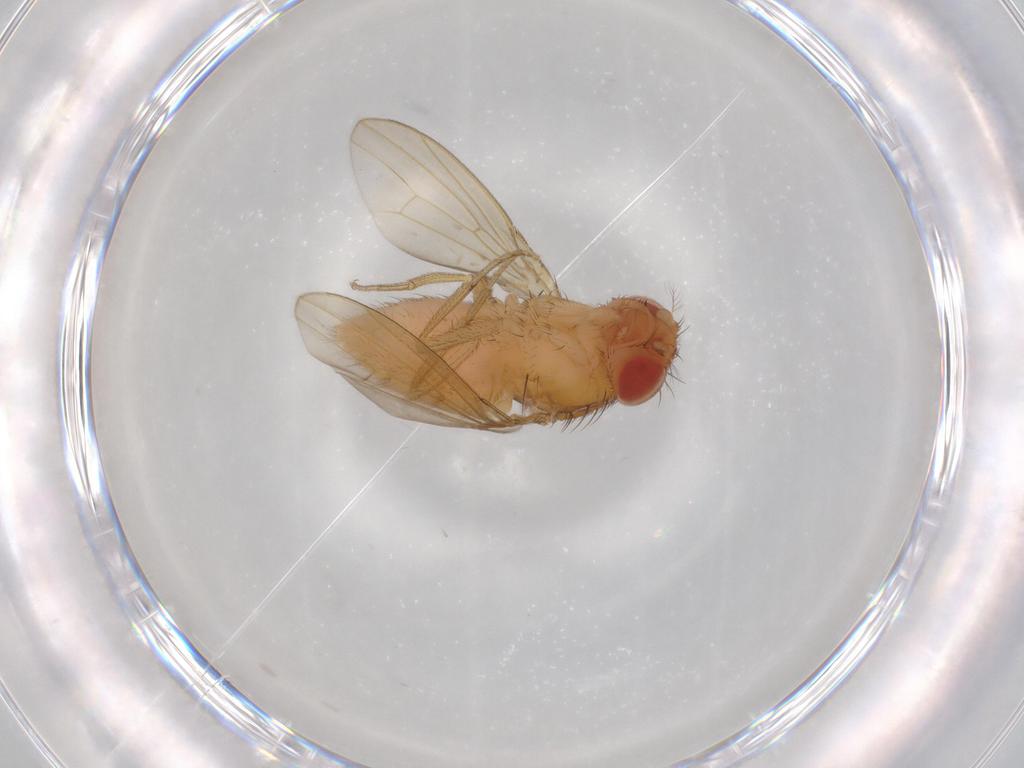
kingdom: Animalia
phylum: Arthropoda
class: Insecta
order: Diptera
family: Drosophilidae
